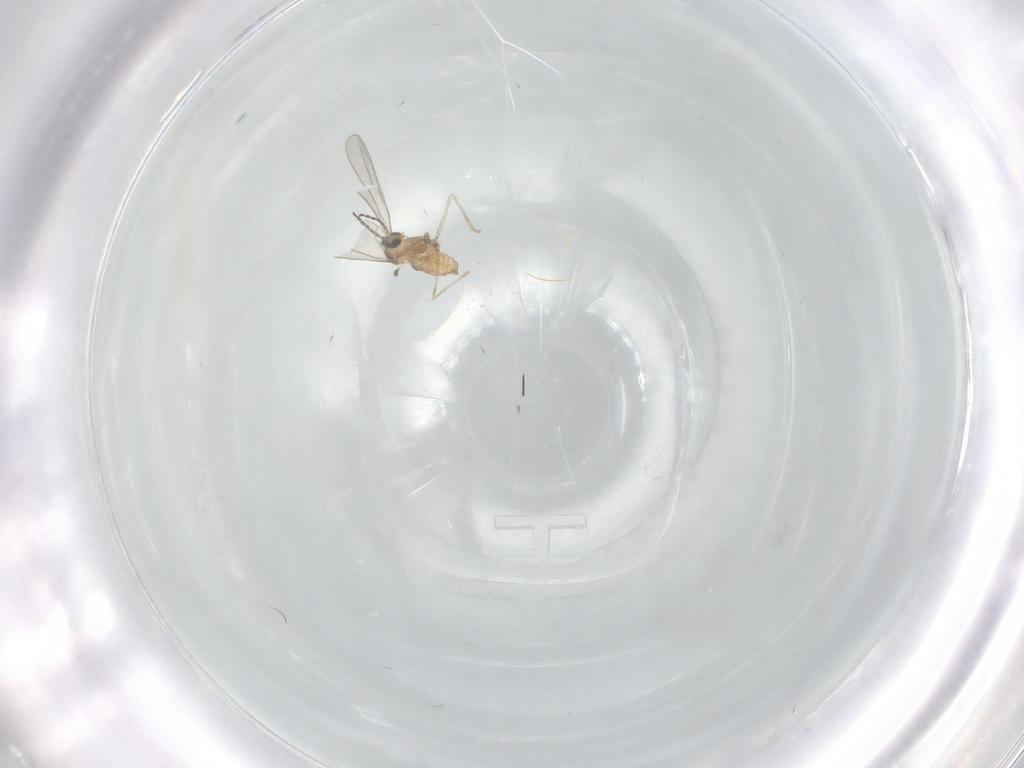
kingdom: Animalia
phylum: Arthropoda
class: Insecta
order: Diptera
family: Cecidomyiidae
